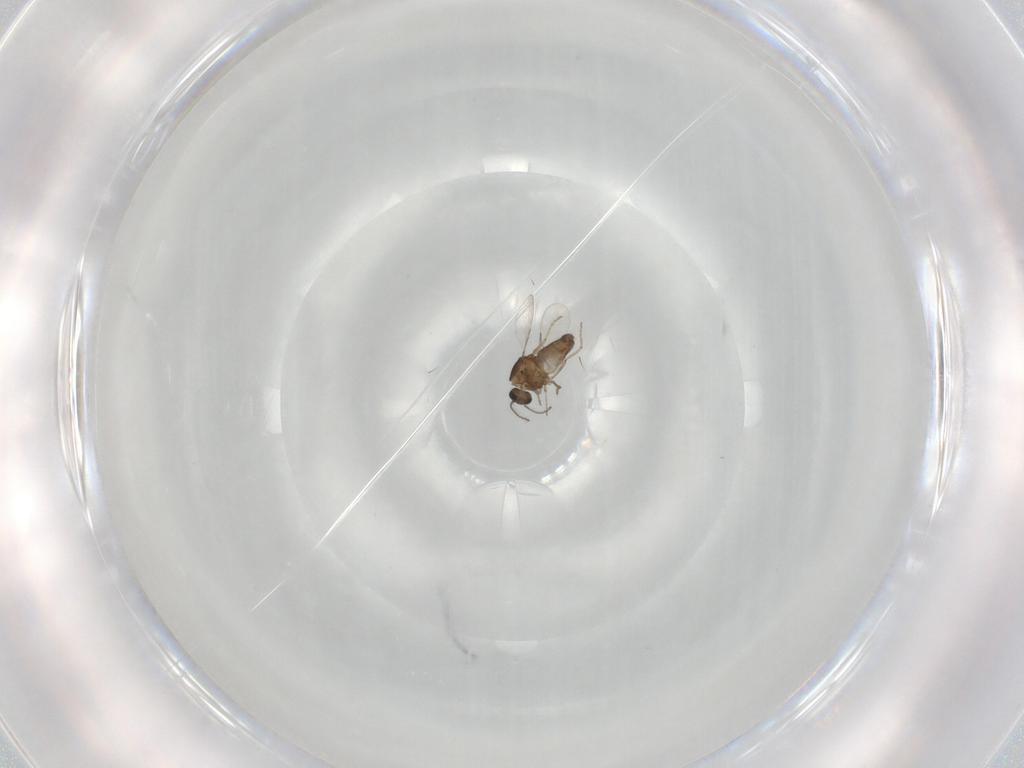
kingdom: Animalia
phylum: Arthropoda
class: Insecta
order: Diptera
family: Ceratopogonidae
